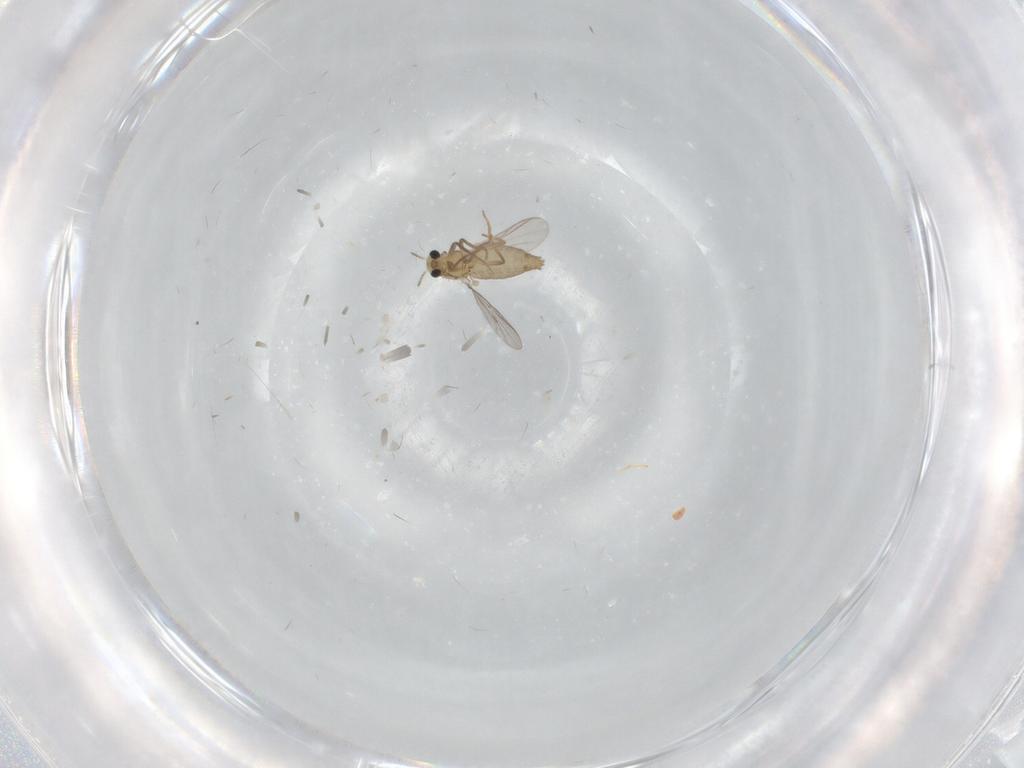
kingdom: Animalia
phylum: Arthropoda
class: Insecta
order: Diptera
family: Chironomidae
